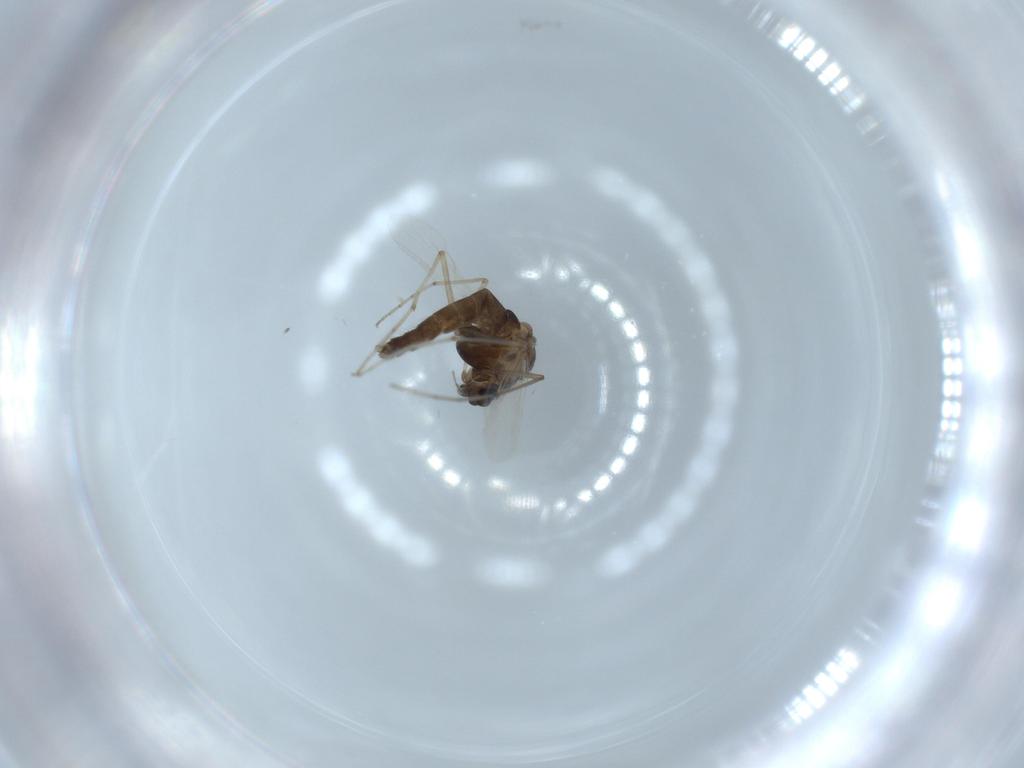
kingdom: Animalia
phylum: Arthropoda
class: Insecta
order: Diptera
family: Chironomidae
